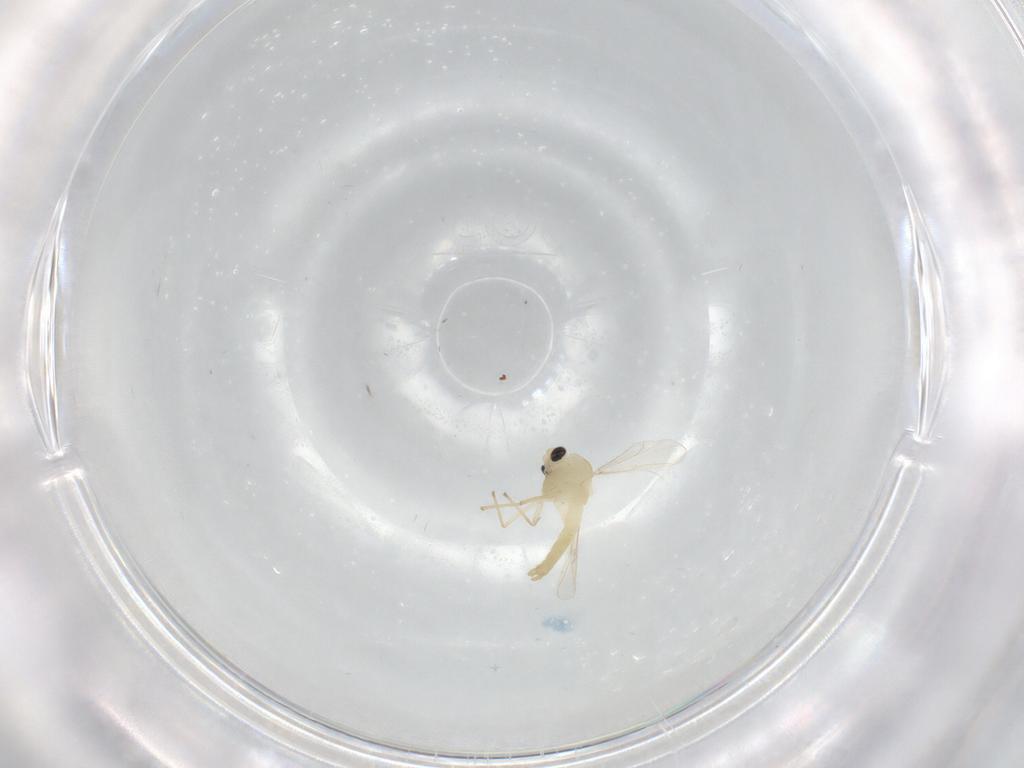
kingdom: Animalia
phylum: Arthropoda
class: Insecta
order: Diptera
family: Chironomidae
